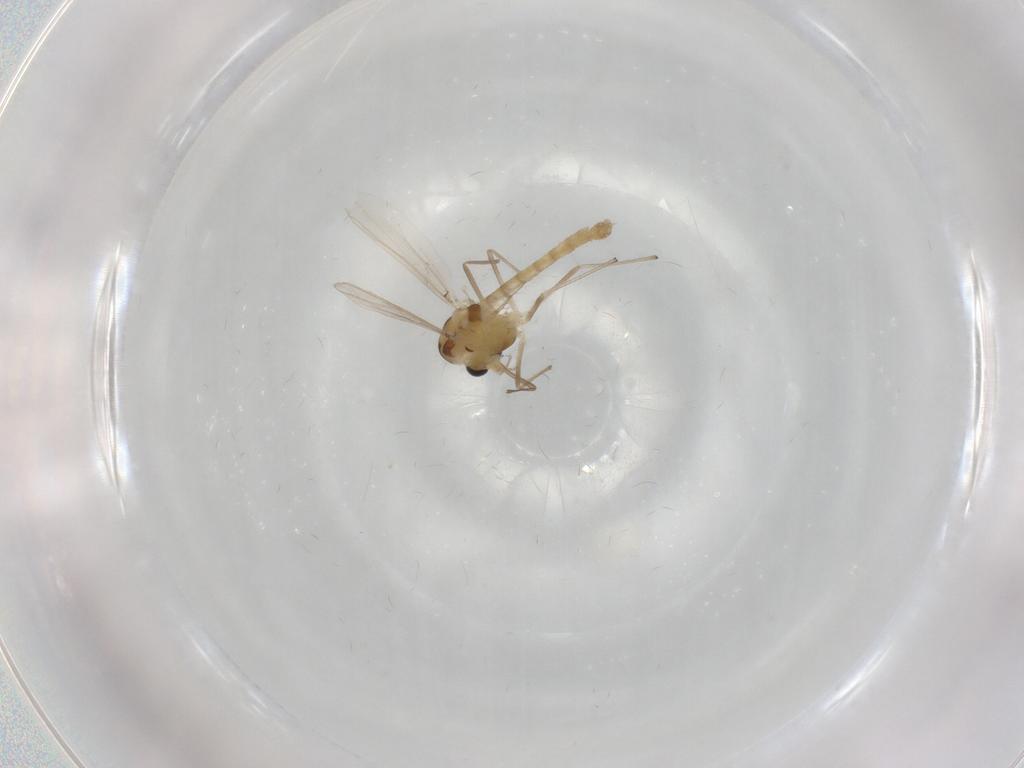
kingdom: Animalia
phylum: Arthropoda
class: Insecta
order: Diptera
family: Chironomidae
